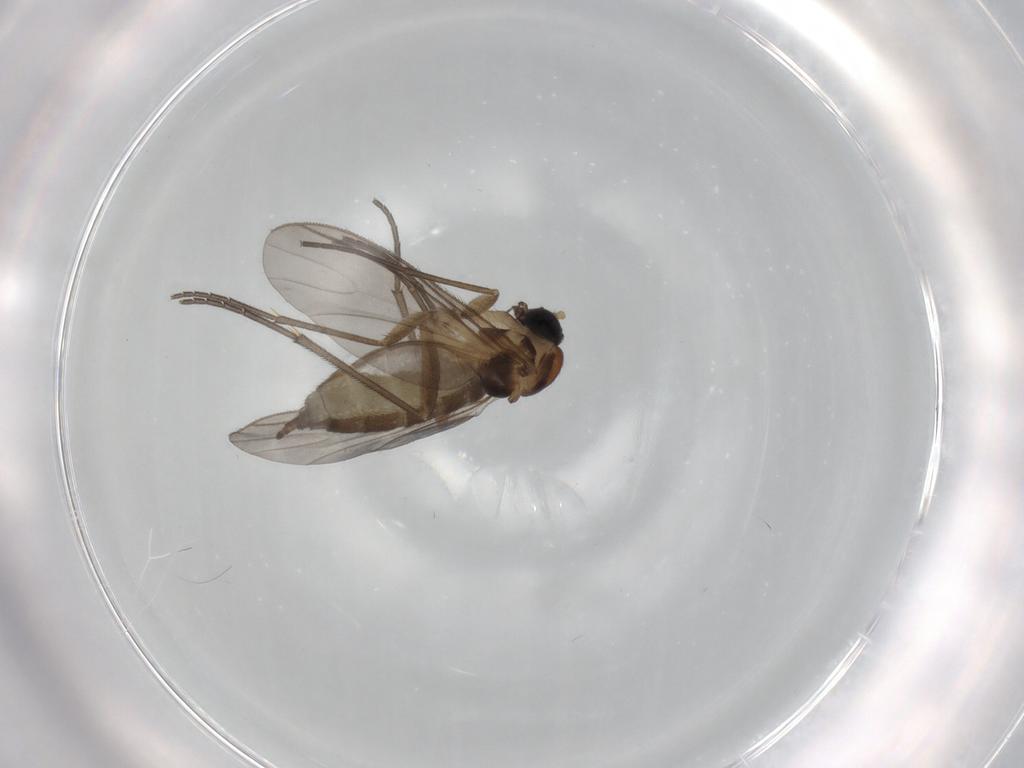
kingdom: Animalia
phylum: Arthropoda
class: Insecta
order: Diptera
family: Sciaridae
